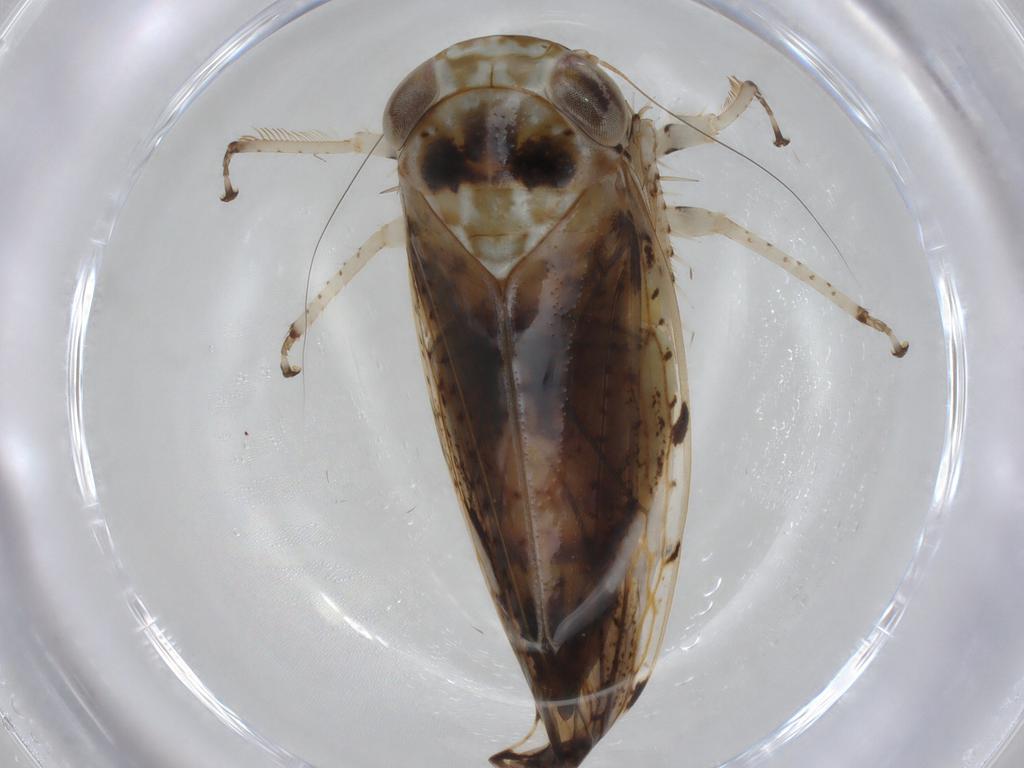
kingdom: Animalia
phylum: Arthropoda
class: Insecta
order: Hemiptera
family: Cicadellidae
